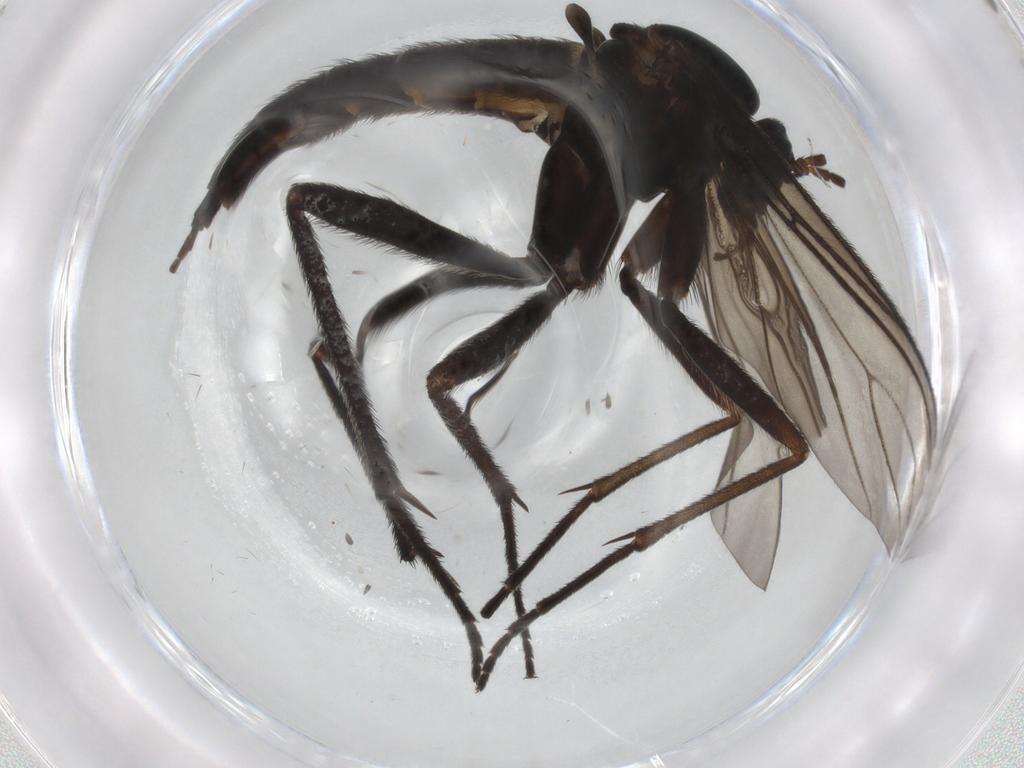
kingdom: Animalia
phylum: Arthropoda
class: Insecta
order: Diptera
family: Sciaridae
